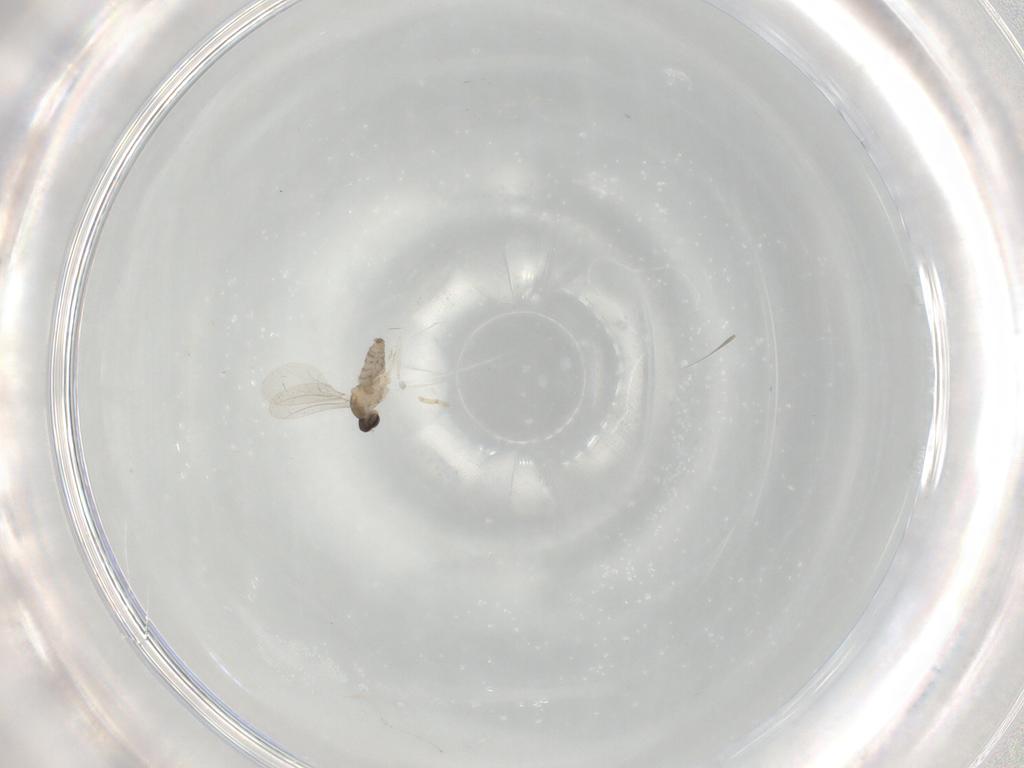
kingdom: Animalia
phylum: Arthropoda
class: Insecta
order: Diptera
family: Cecidomyiidae
